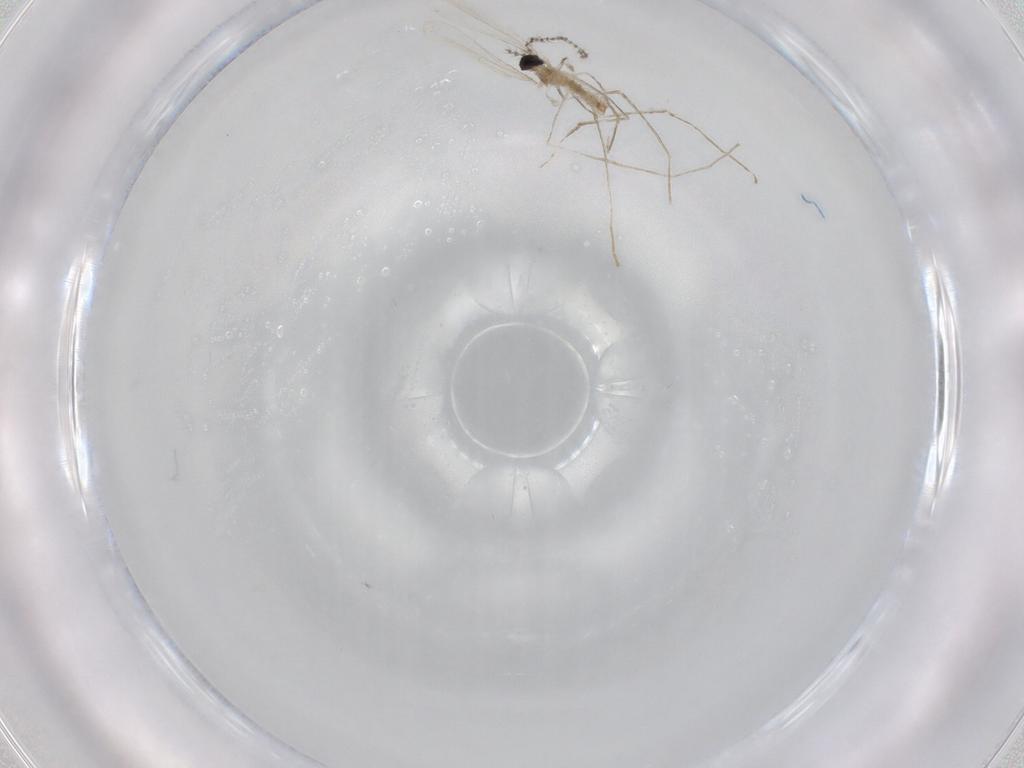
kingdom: Animalia
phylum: Arthropoda
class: Insecta
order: Diptera
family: Cecidomyiidae
